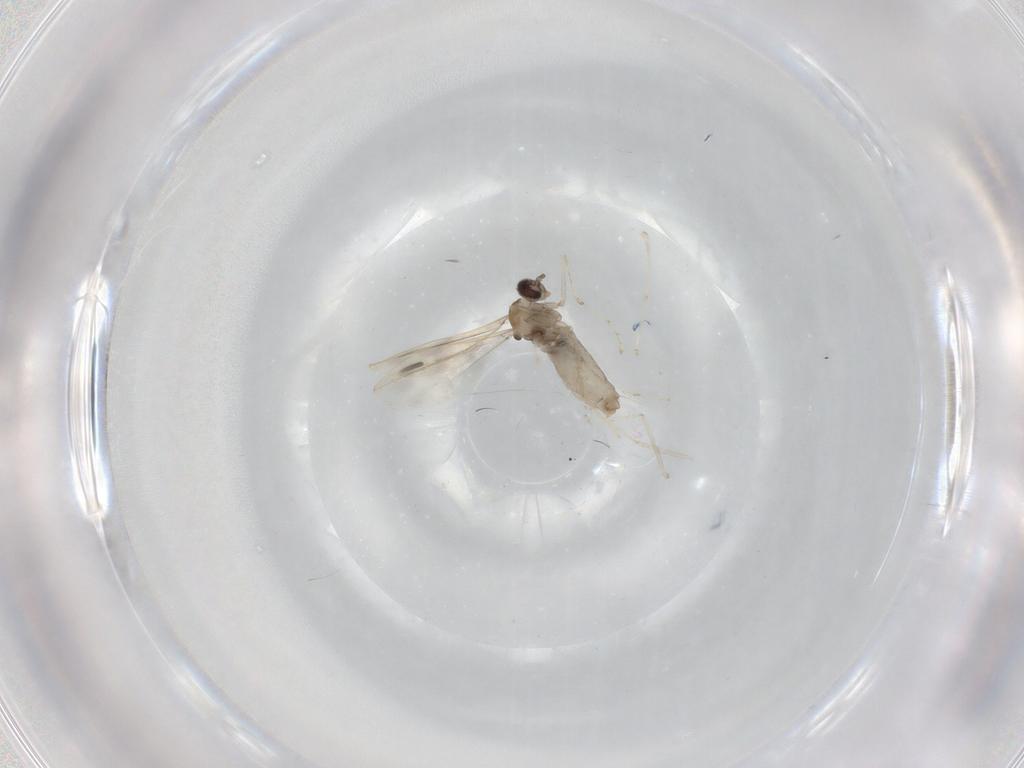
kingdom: Animalia
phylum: Arthropoda
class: Insecta
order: Diptera
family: Cecidomyiidae
